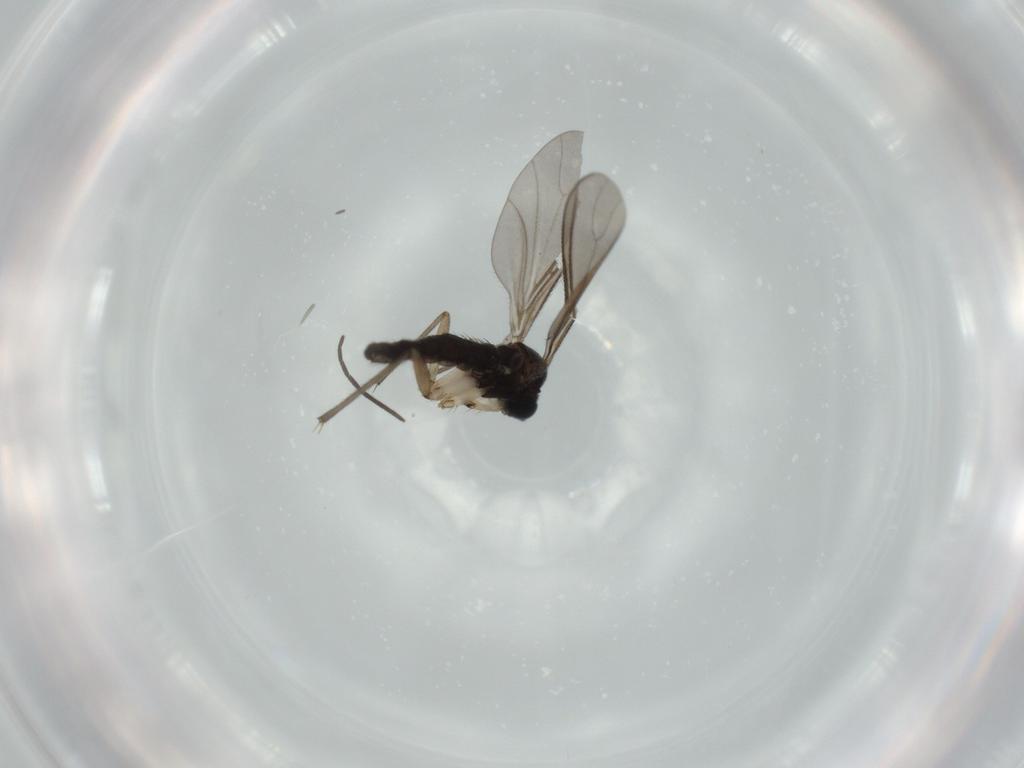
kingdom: Animalia
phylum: Arthropoda
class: Insecta
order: Diptera
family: Sciaridae
